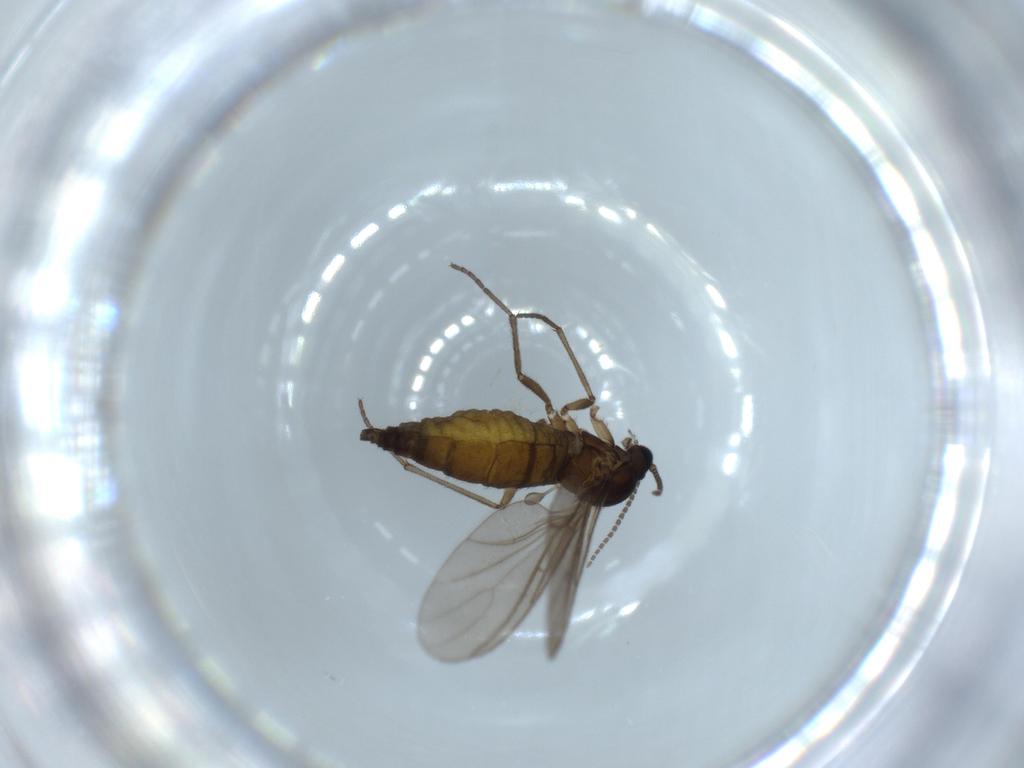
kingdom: Animalia
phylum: Arthropoda
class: Insecta
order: Diptera
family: Sciaridae
